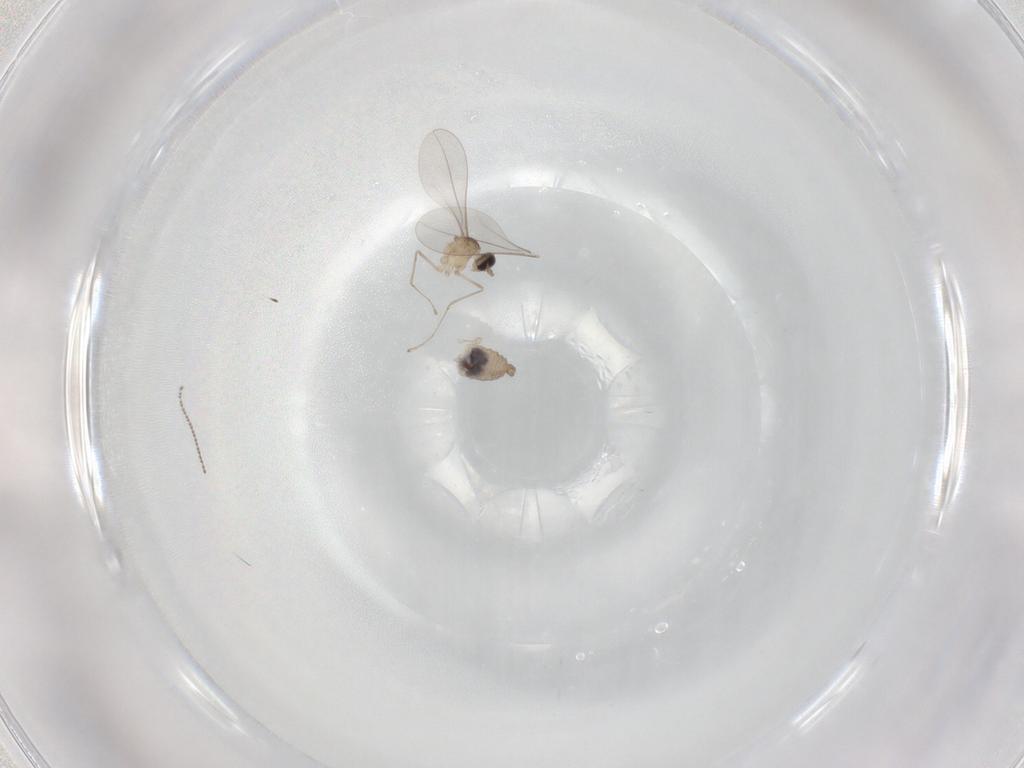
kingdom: Animalia
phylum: Arthropoda
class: Insecta
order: Diptera
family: Cecidomyiidae
